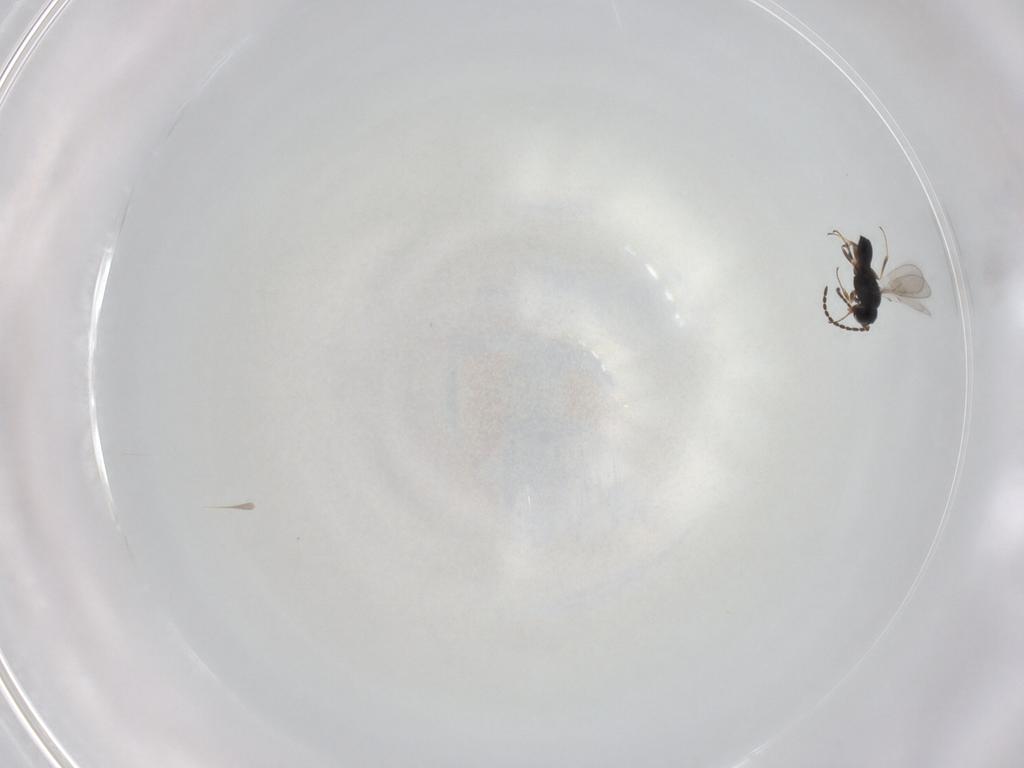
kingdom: Animalia
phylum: Arthropoda
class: Insecta
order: Hymenoptera
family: Scelionidae
